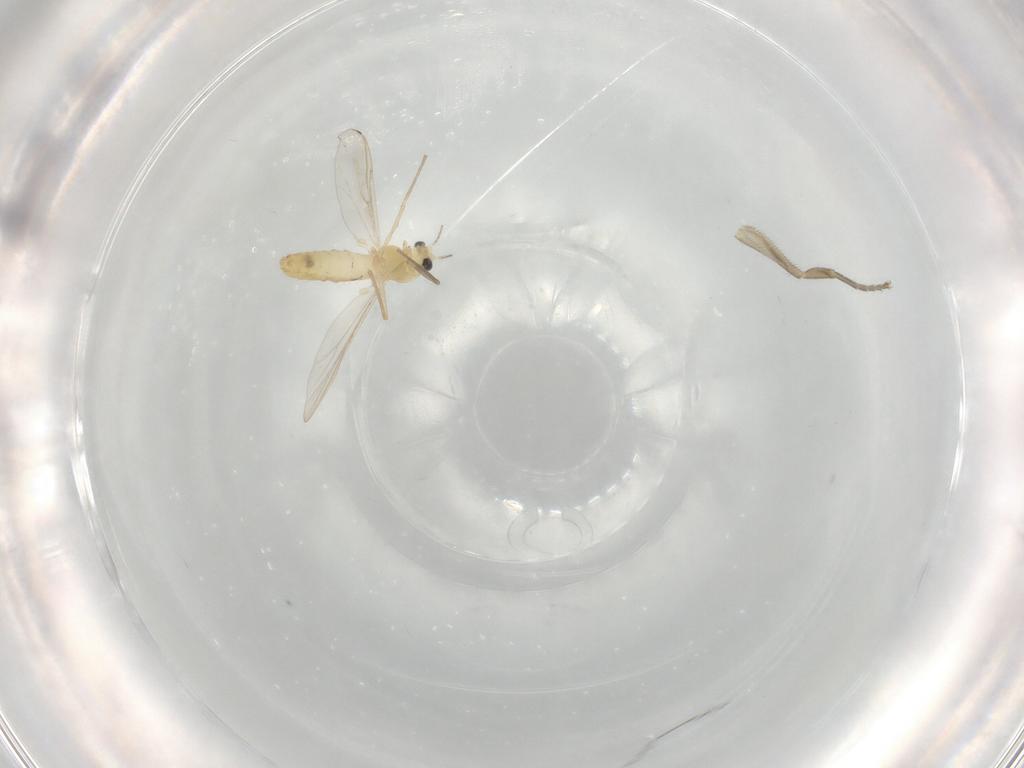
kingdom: Animalia
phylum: Arthropoda
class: Insecta
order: Diptera
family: Chironomidae
